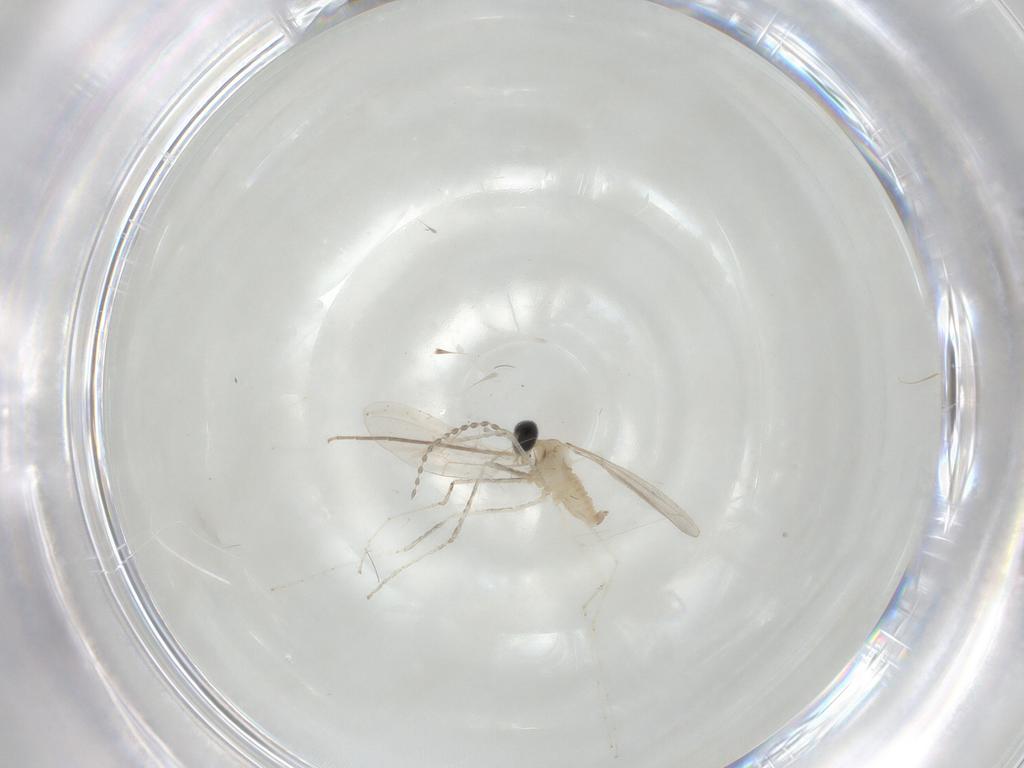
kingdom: Animalia
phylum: Arthropoda
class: Insecta
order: Diptera
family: Cecidomyiidae
